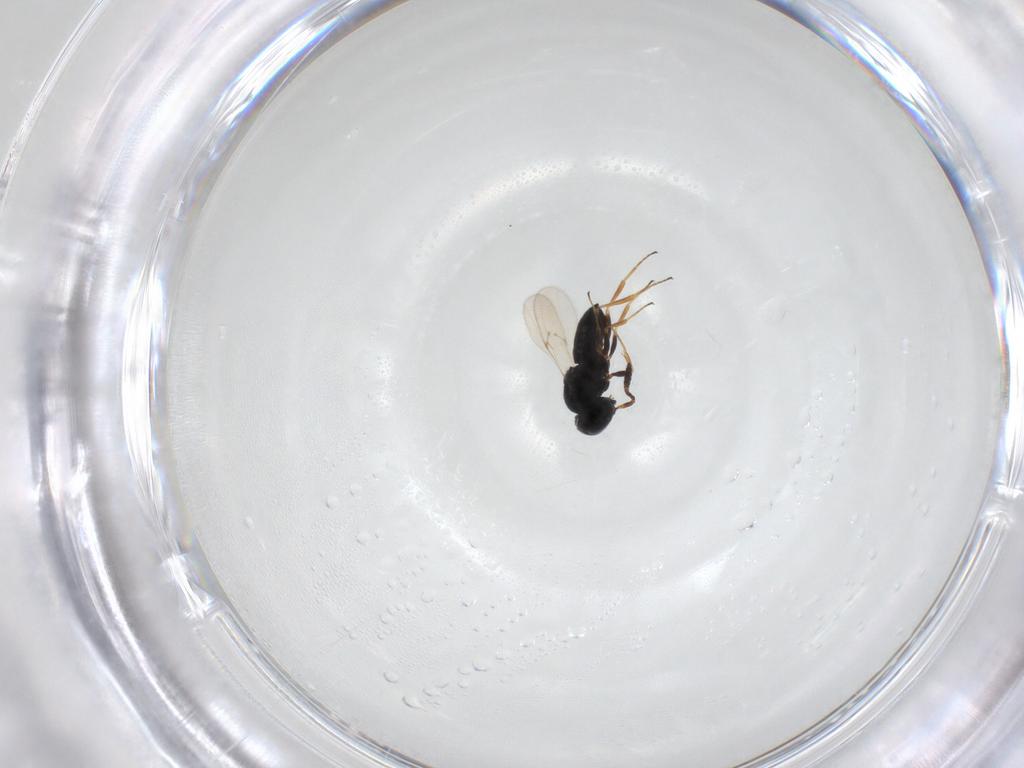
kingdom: Animalia
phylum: Arthropoda
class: Insecta
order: Hymenoptera
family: Scelionidae
